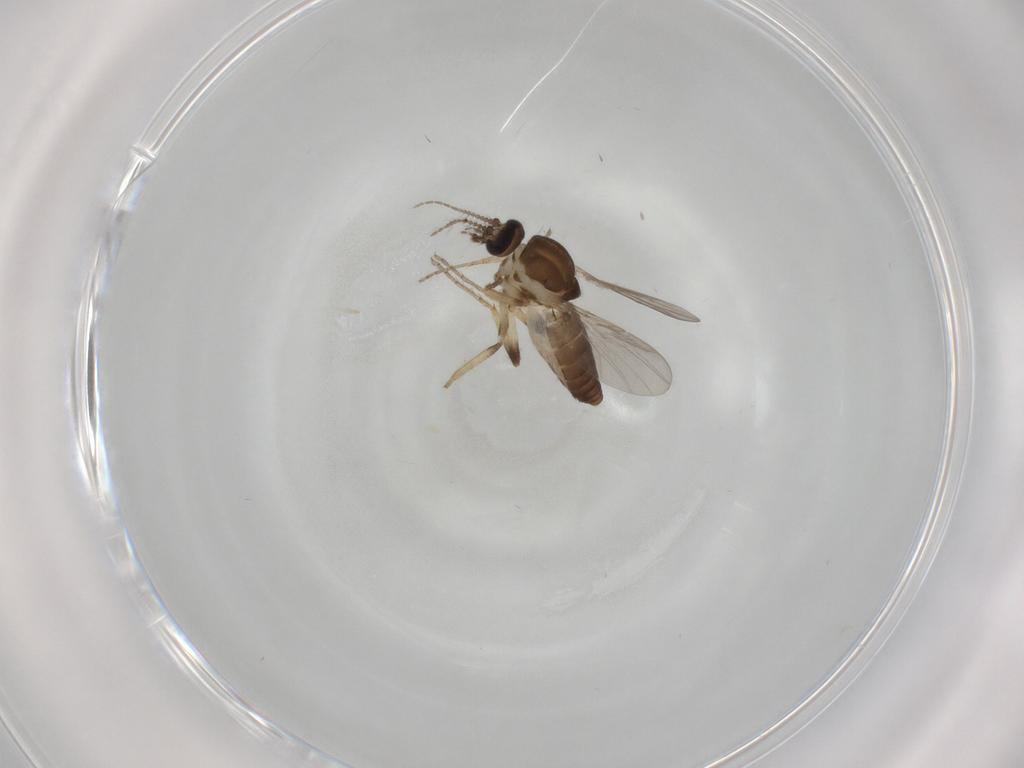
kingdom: Animalia
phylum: Arthropoda
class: Insecta
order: Diptera
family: Ceratopogonidae
